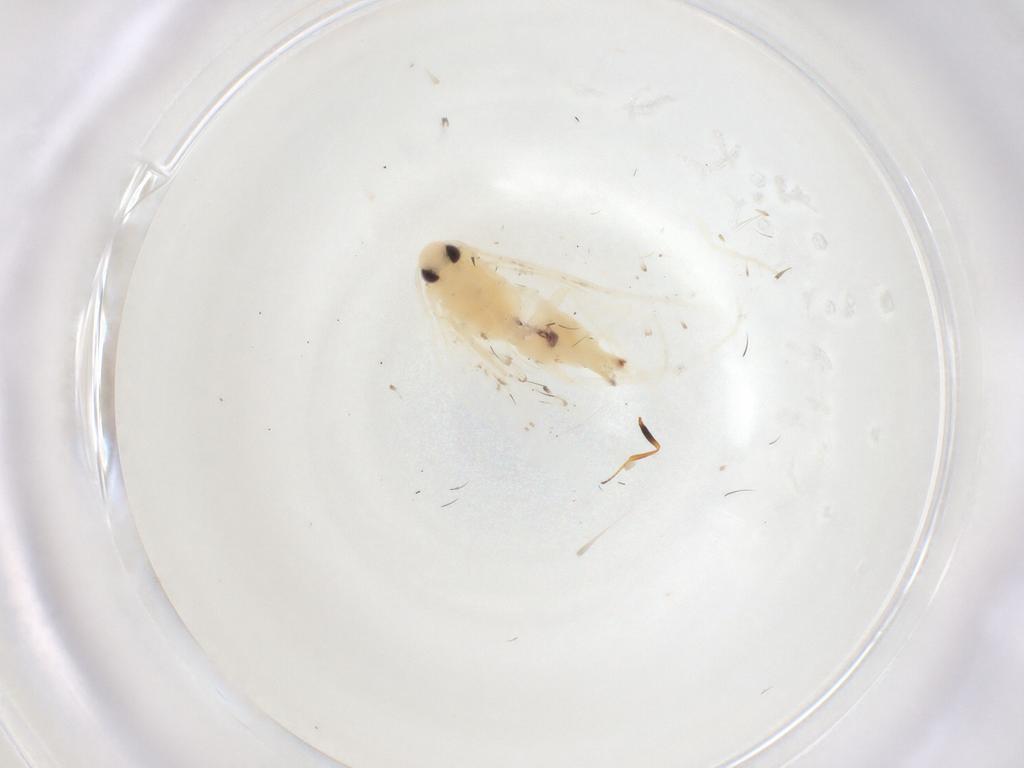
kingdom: Animalia
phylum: Arthropoda
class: Insecta
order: Lepidoptera
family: Gelechiidae
